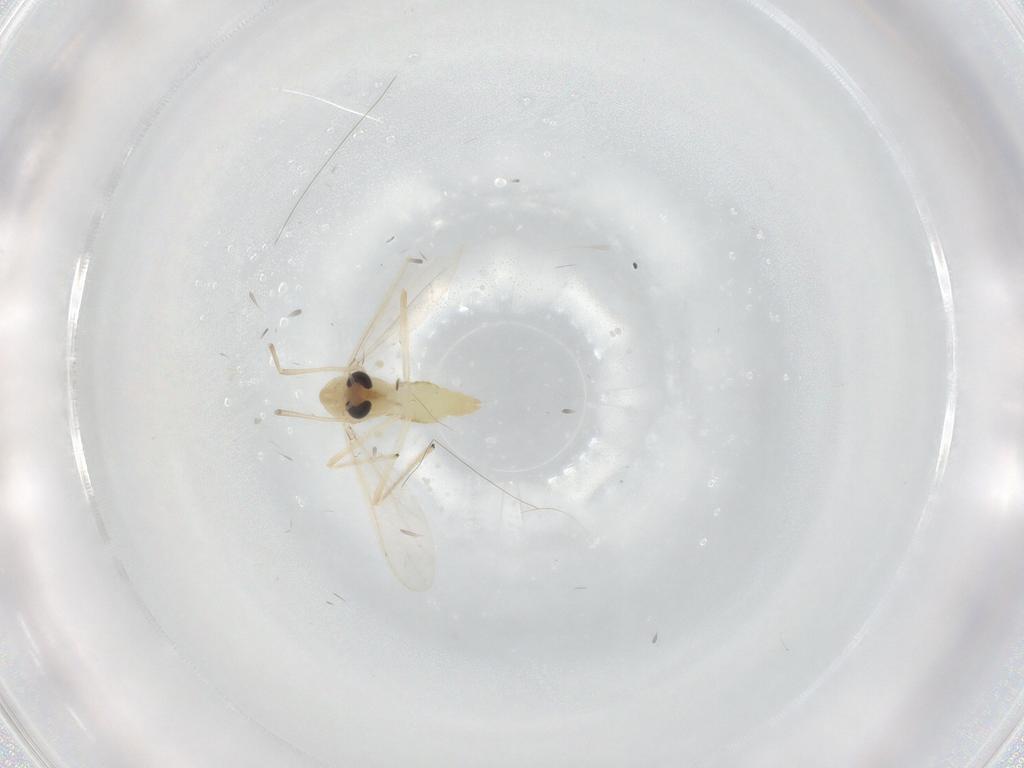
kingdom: Animalia
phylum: Arthropoda
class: Insecta
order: Diptera
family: Chironomidae
